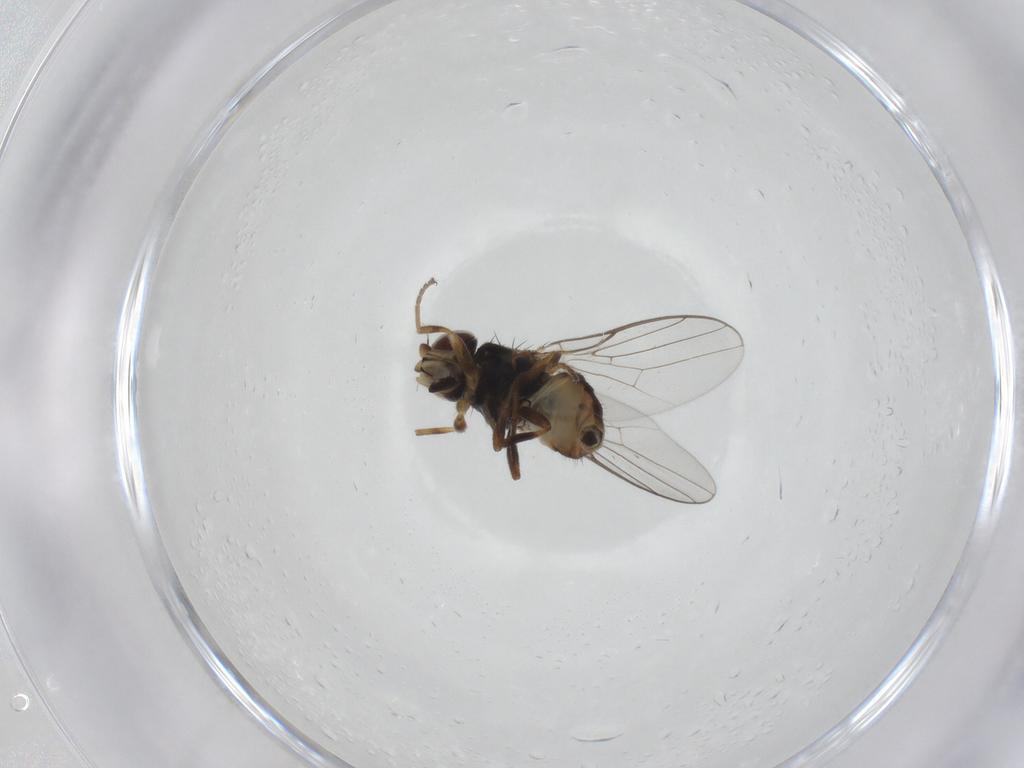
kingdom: Animalia
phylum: Arthropoda
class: Insecta
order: Diptera
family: Chloropidae
